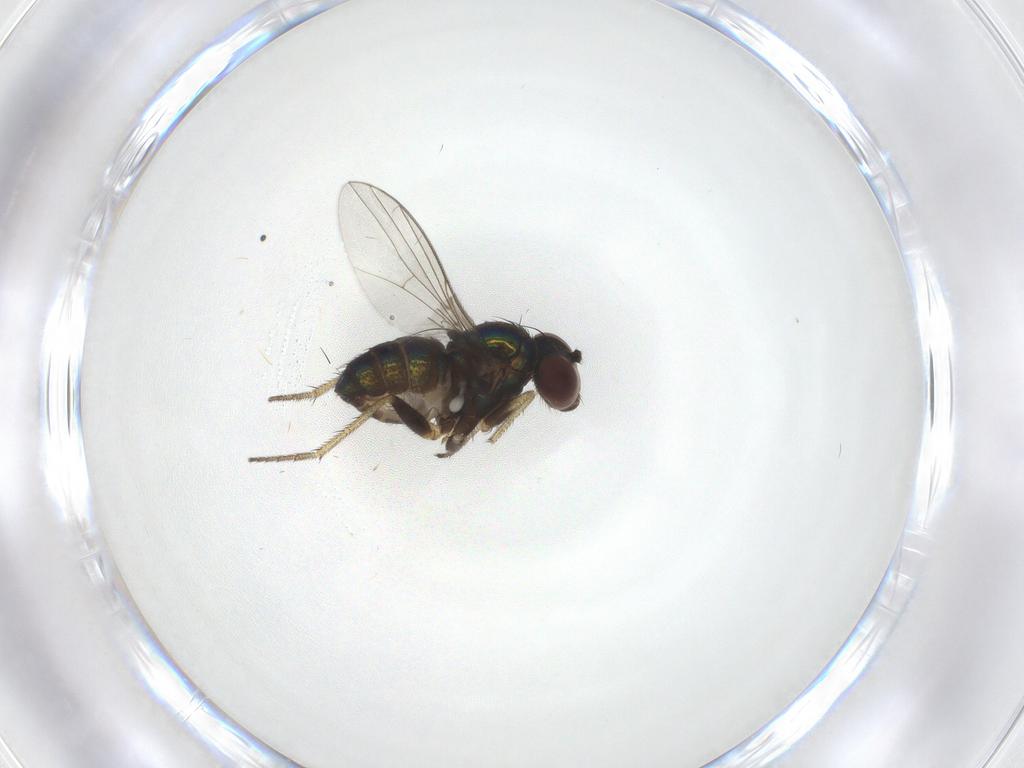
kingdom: Animalia
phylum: Arthropoda
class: Insecta
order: Diptera
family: Dolichopodidae
